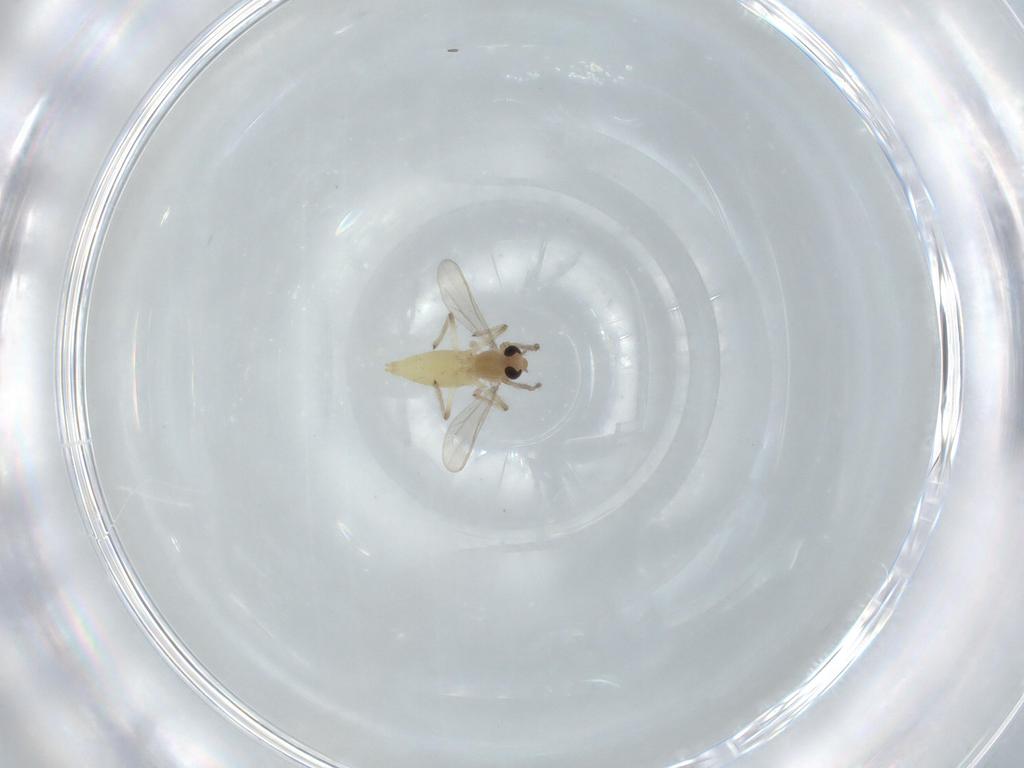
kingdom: Animalia
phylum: Arthropoda
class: Insecta
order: Diptera
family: Chironomidae
